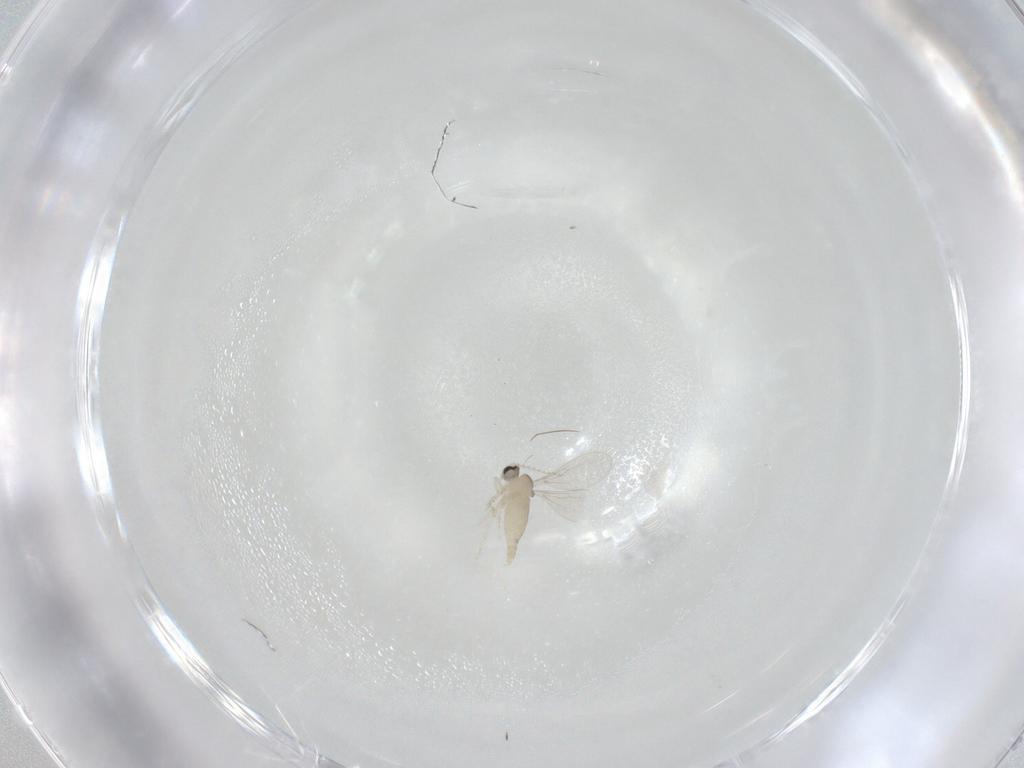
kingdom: Animalia
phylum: Arthropoda
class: Insecta
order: Diptera
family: Cecidomyiidae
